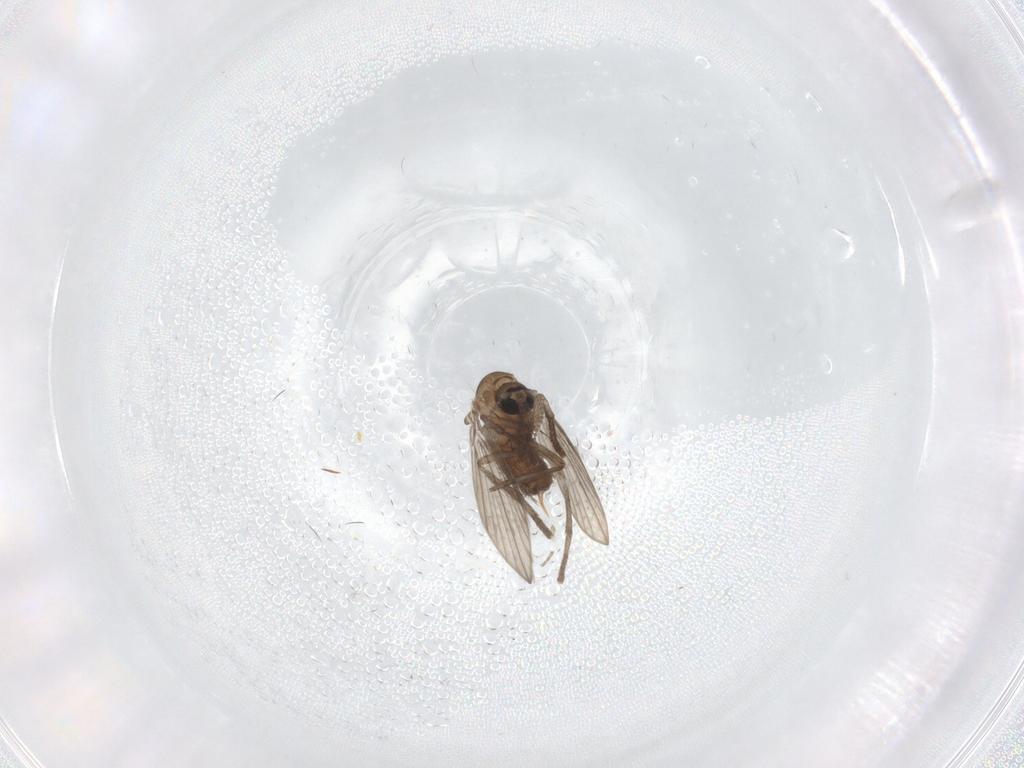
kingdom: Animalia
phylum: Arthropoda
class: Insecta
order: Diptera
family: Psychodidae
